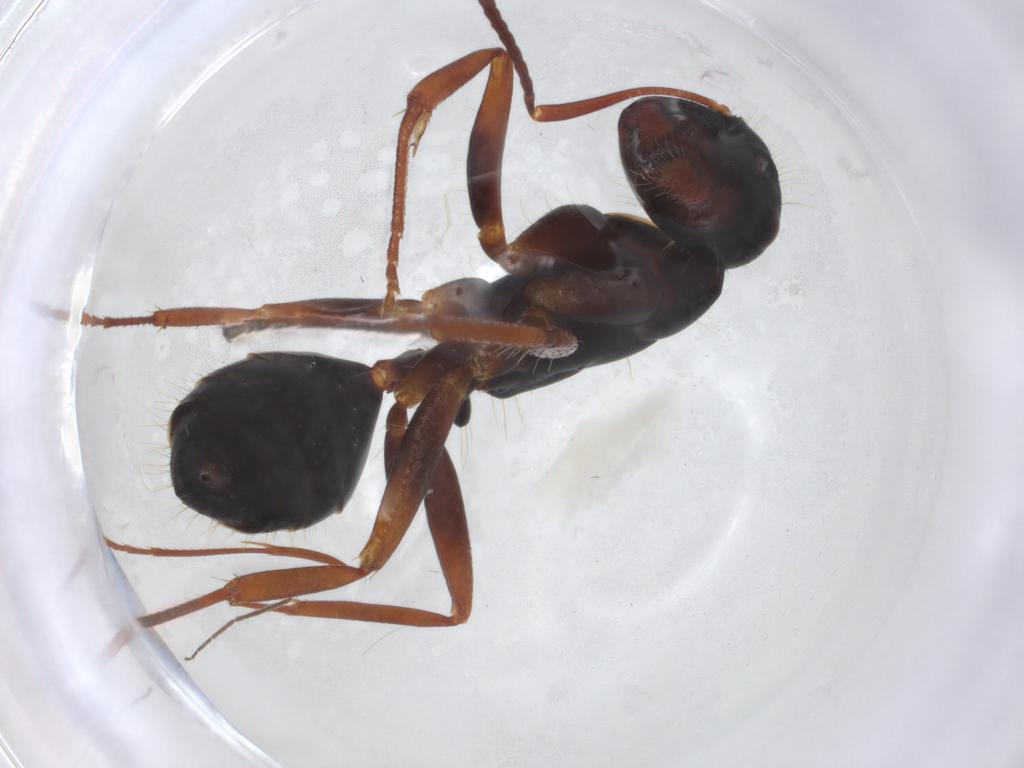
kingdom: Animalia
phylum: Arthropoda
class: Insecta
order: Hymenoptera
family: Formicidae
